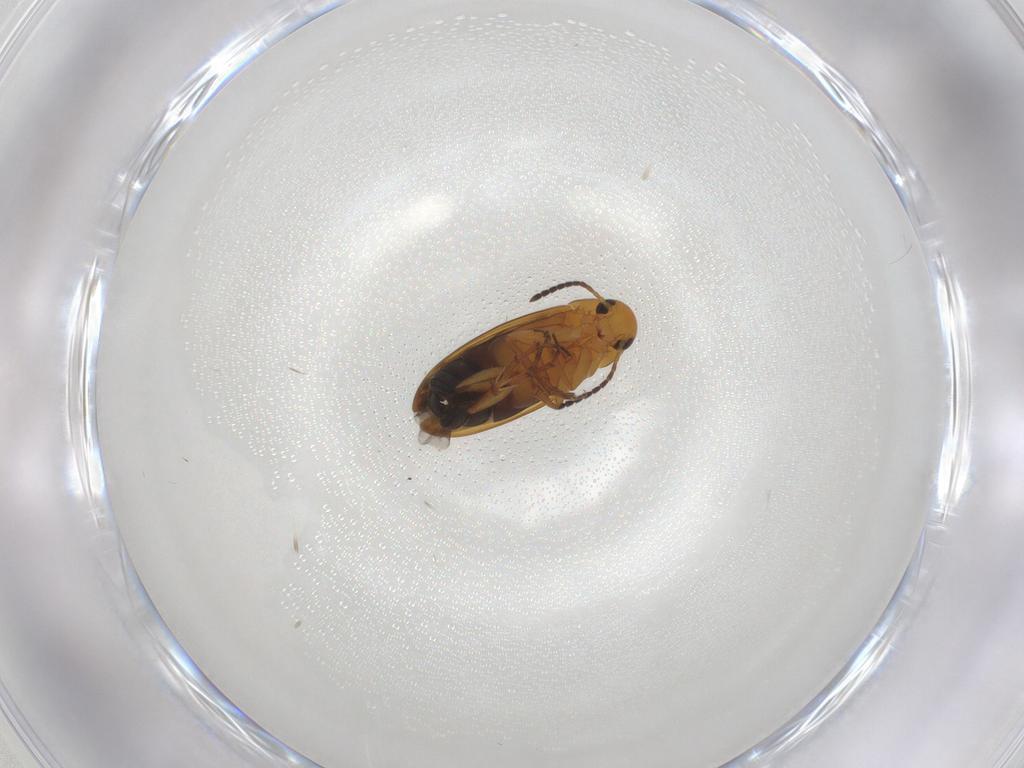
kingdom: Animalia
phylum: Arthropoda
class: Insecta
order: Coleoptera
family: Scraptiidae
